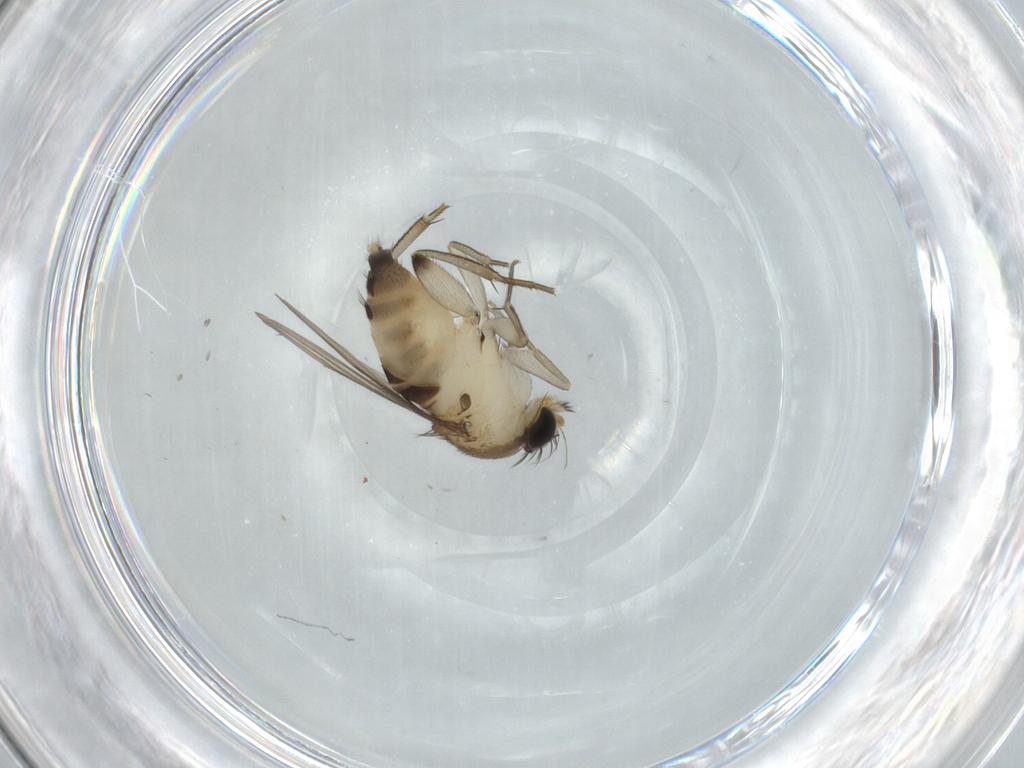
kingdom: Animalia
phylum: Arthropoda
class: Insecta
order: Diptera
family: Phoridae
